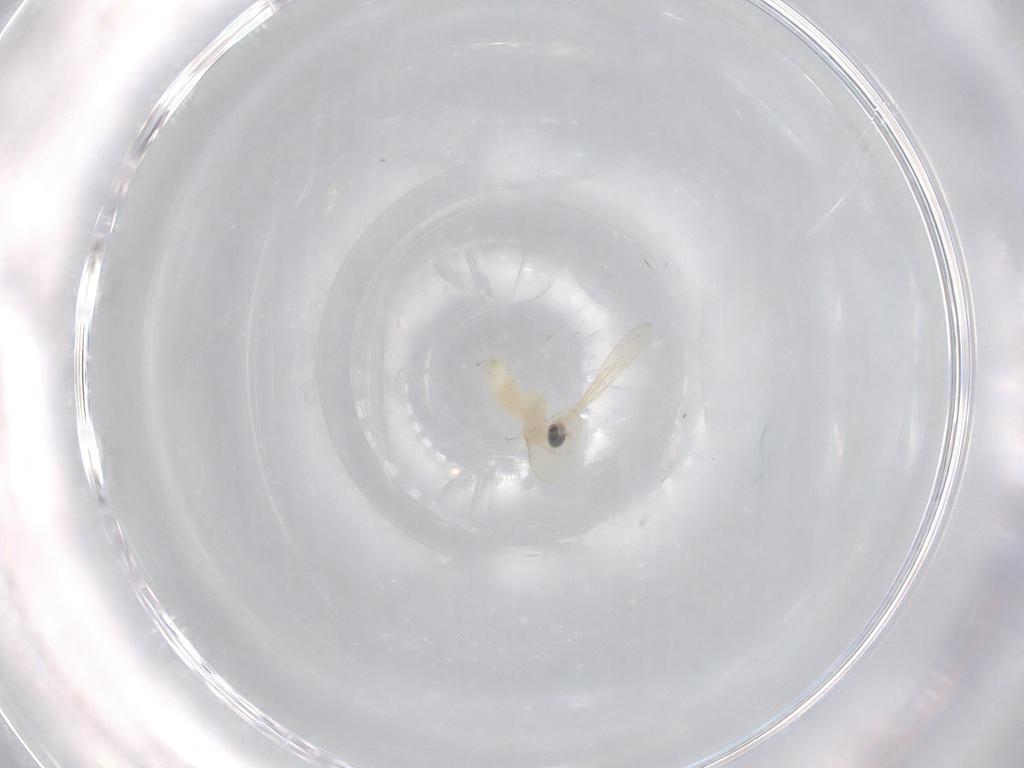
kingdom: Animalia
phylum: Arthropoda
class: Insecta
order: Diptera
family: Cecidomyiidae
